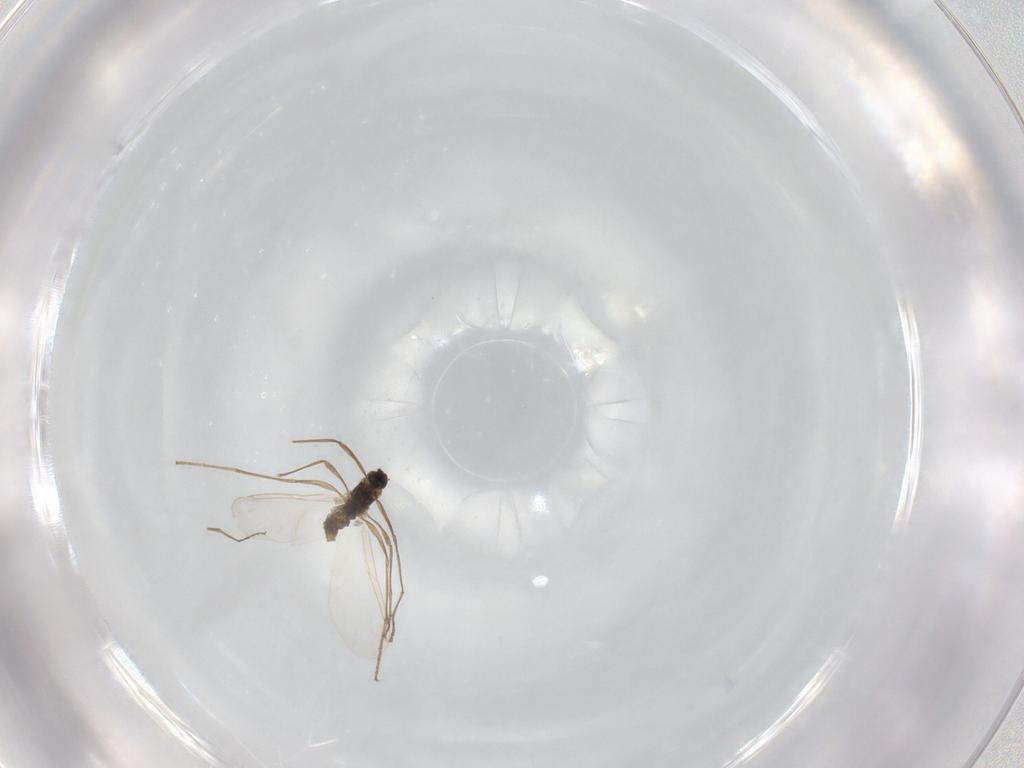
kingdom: Animalia
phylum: Arthropoda
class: Insecta
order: Diptera
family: Cecidomyiidae
